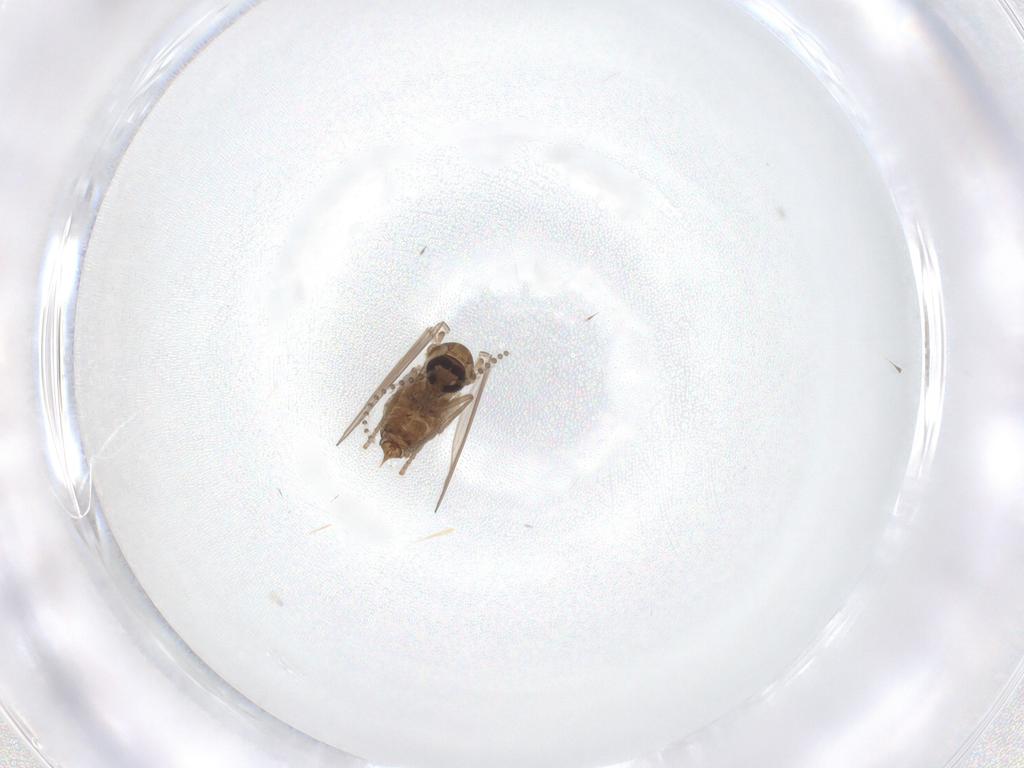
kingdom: Animalia
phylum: Arthropoda
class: Insecta
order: Diptera
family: Psychodidae
